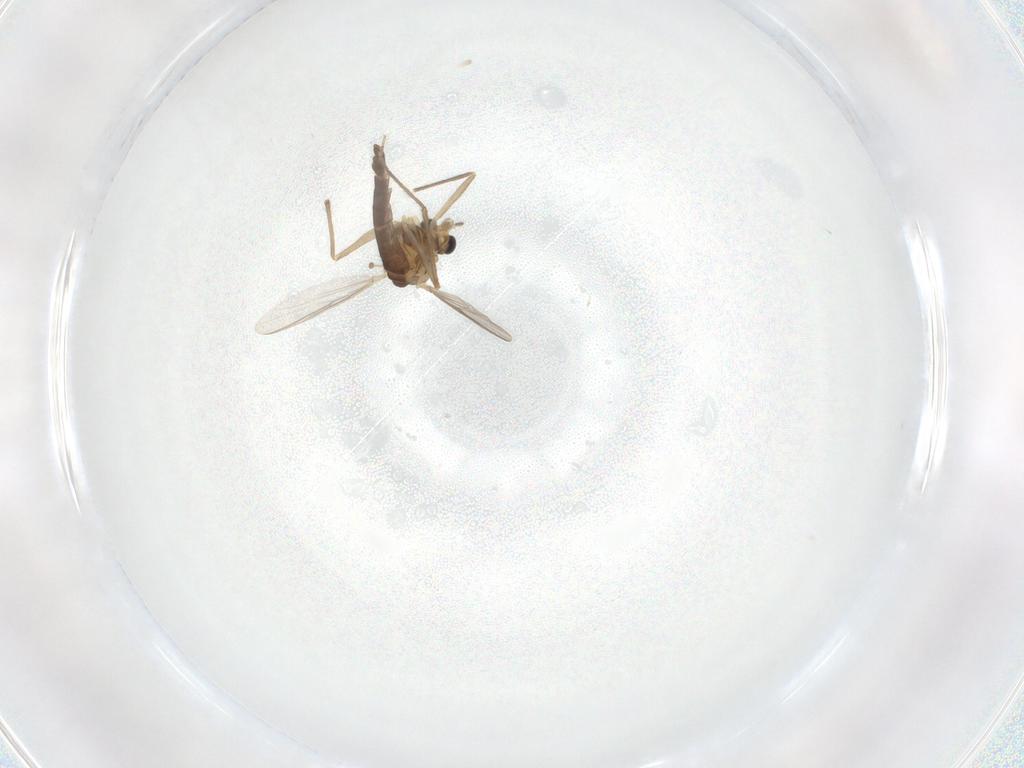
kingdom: Animalia
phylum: Arthropoda
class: Insecta
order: Diptera
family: Chironomidae
